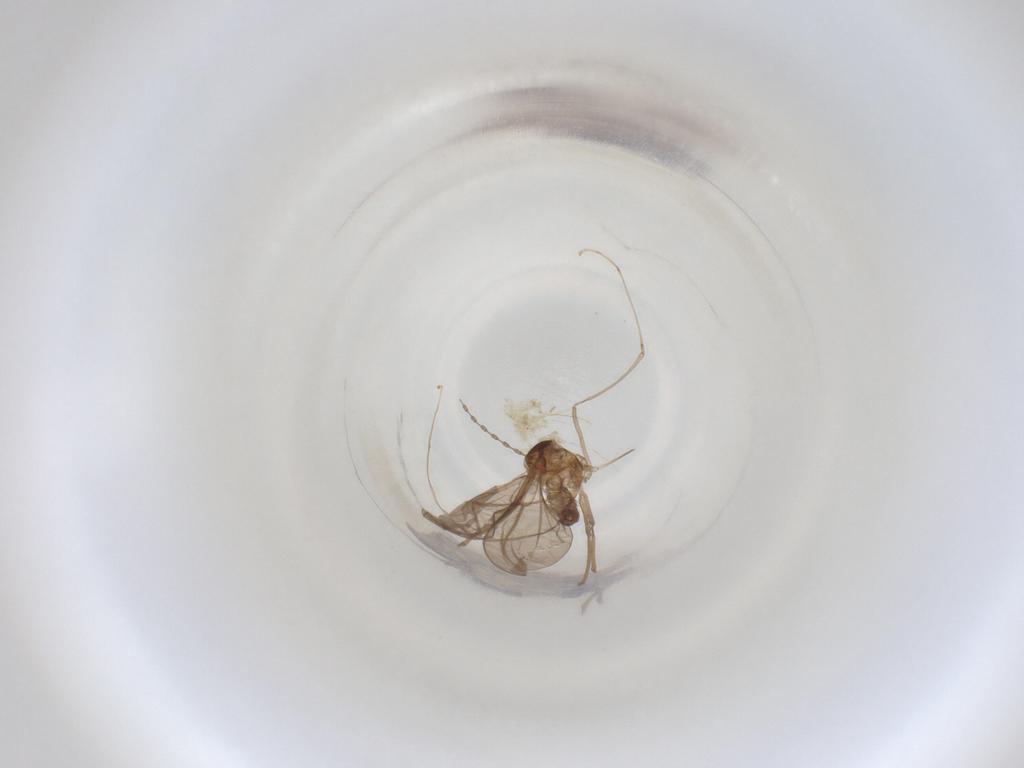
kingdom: Animalia
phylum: Arthropoda
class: Insecta
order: Diptera
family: Cecidomyiidae
